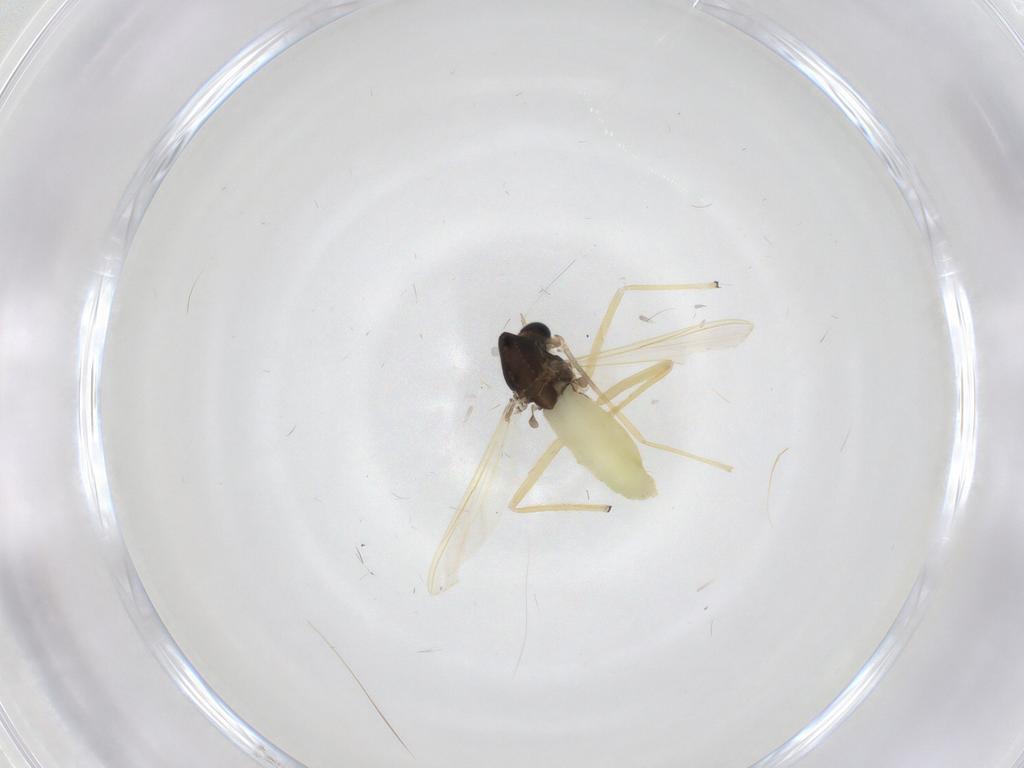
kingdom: Animalia
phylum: Arthropoda
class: Insecta
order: Diptera
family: Chironomidae
